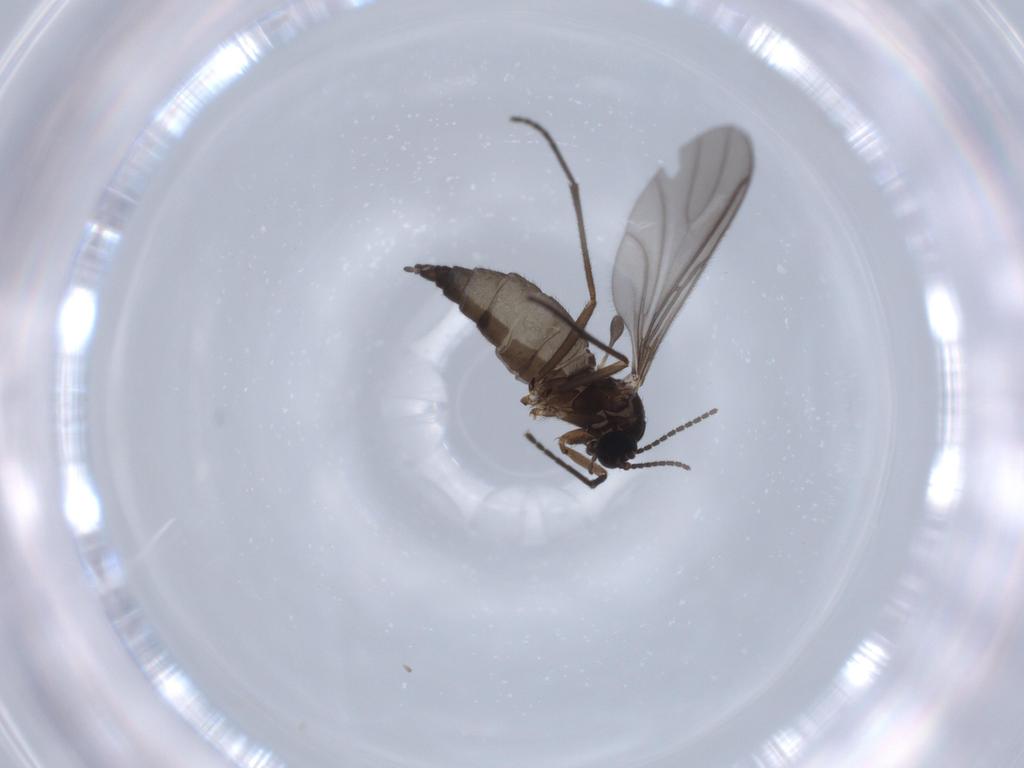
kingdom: Animalia
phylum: Arthropoda
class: Insecta
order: Diptera
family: Sciaridae
